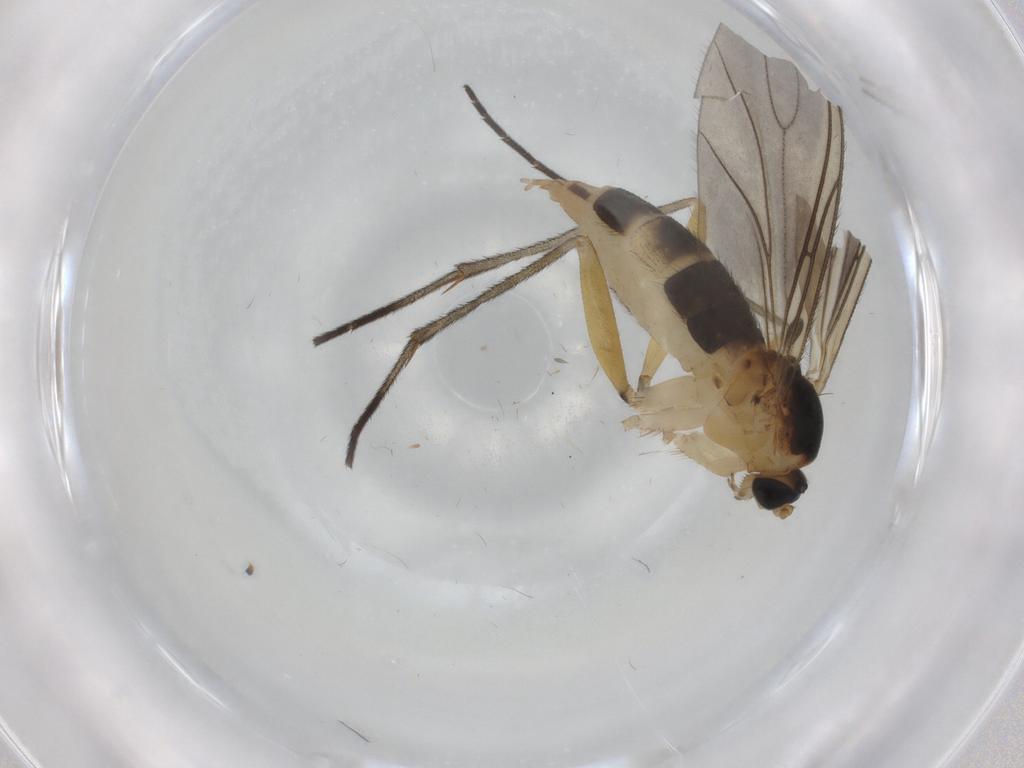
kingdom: Animalia
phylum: Arthropoda
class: Insecta
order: Diptera
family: Sciaridae
